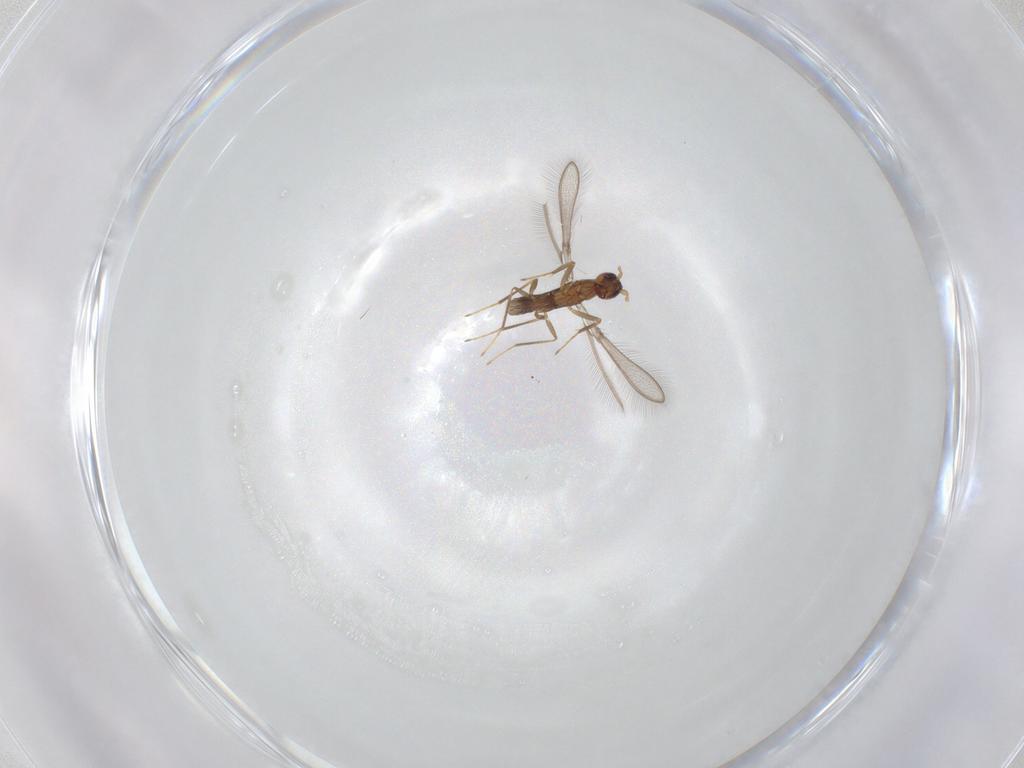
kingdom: Animalia
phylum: Arthropoda
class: Insecta
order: Hymenoptera
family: Mymaridae
